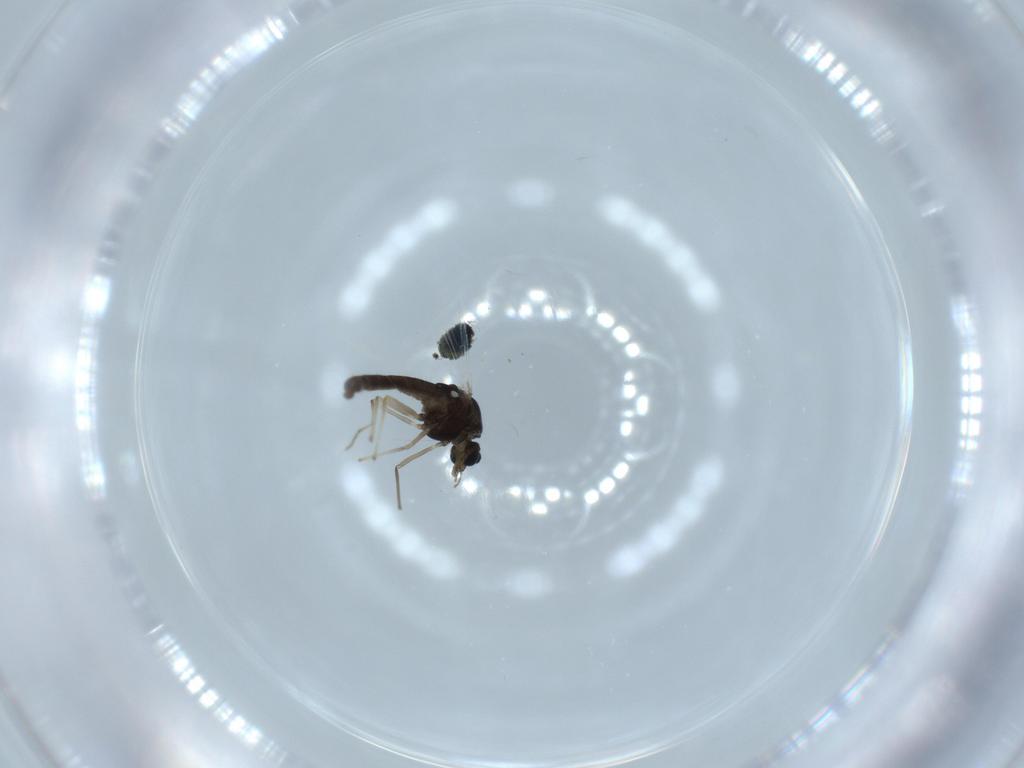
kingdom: Animalia
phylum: Arthropoda
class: Insecta
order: Diptera
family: Chironomidae
